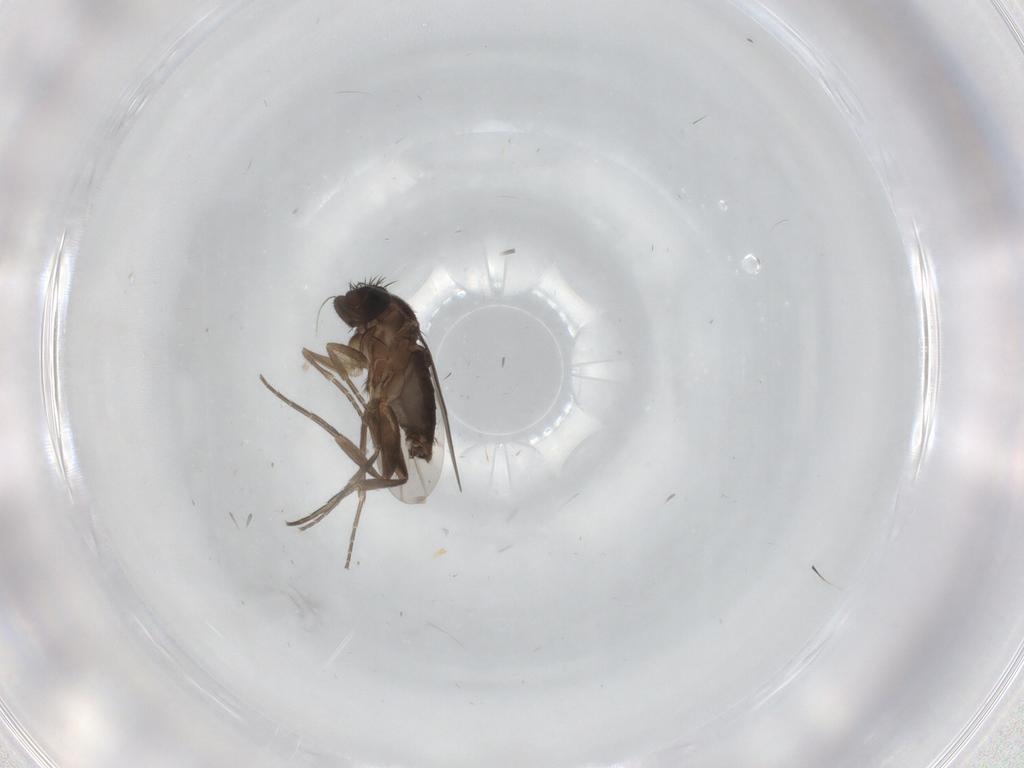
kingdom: Animalia
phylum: Arthropoda
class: Insecta
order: Diptera
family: Phoridae
